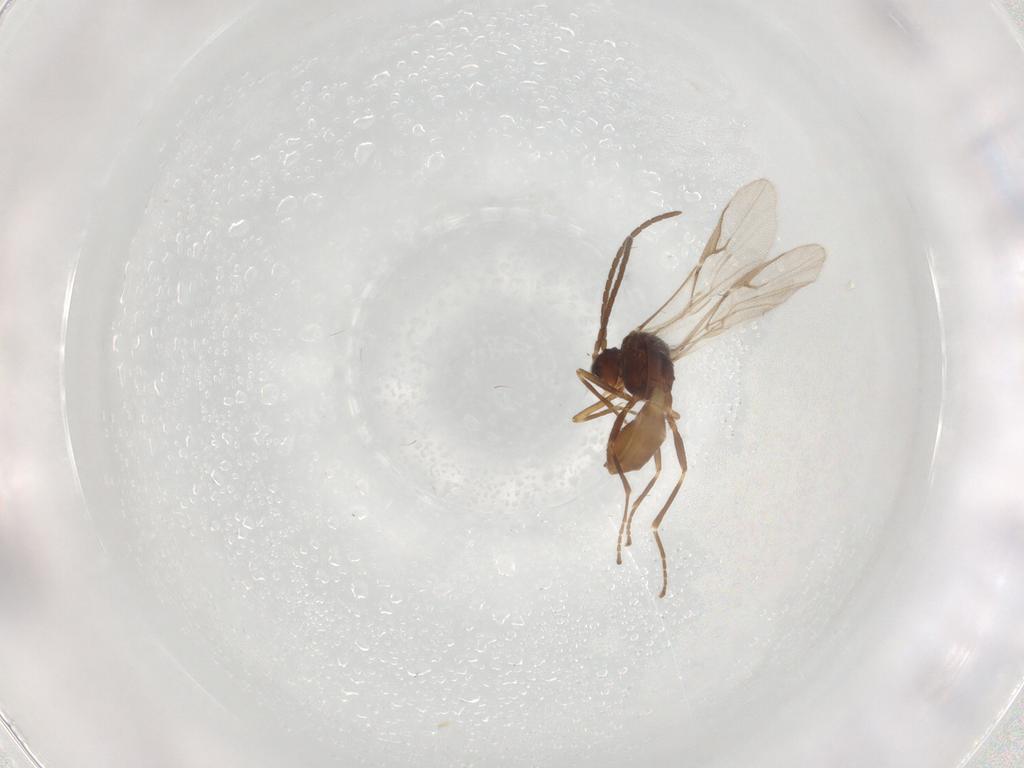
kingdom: Animalia
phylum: Arthropoda
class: Insecta
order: Hymenoptera
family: Braconidae
